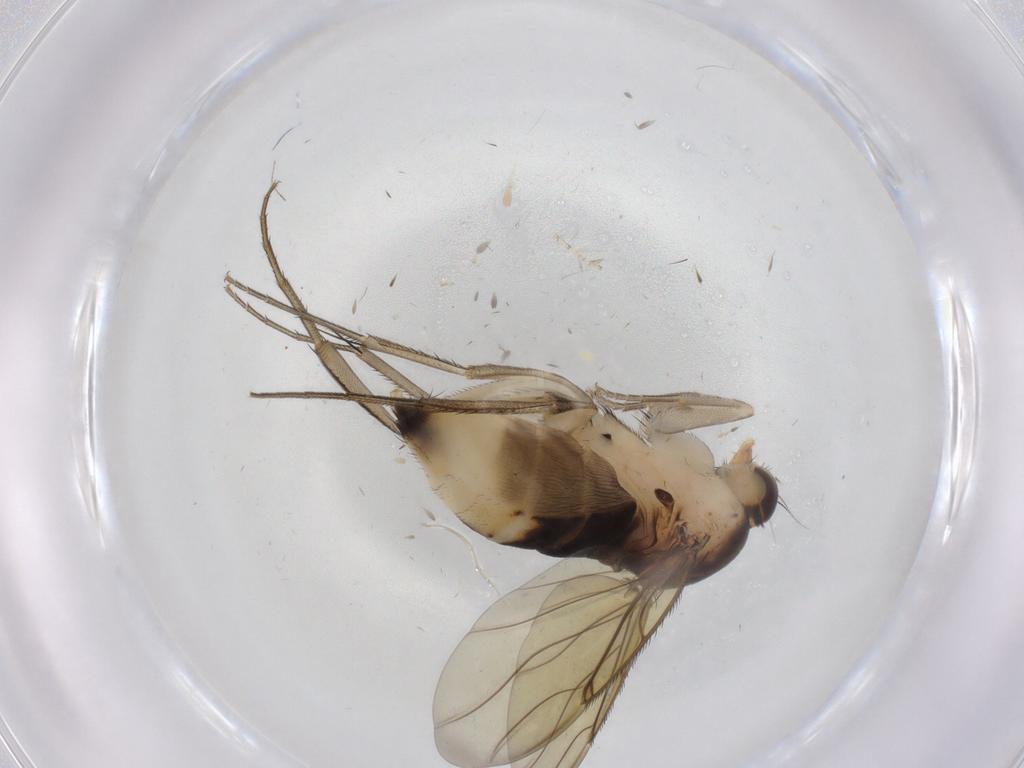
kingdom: Animalia
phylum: Arthropoda
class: Insecta
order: Diptera
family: Phoridae
